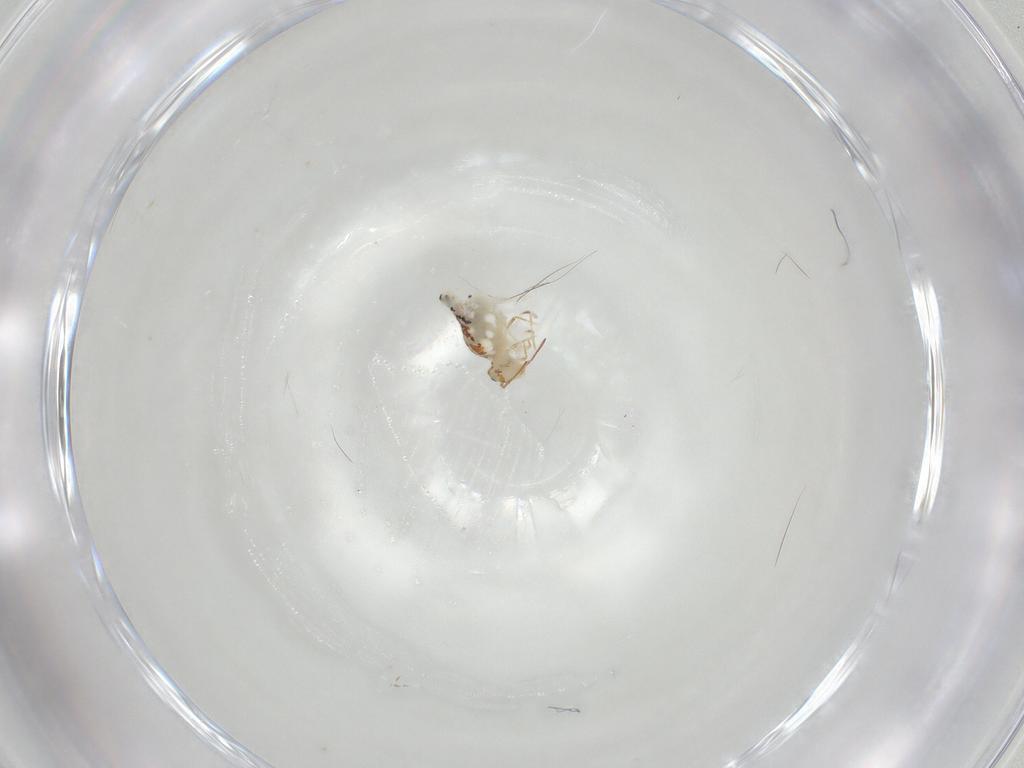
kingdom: Animalia
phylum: Arthropoda
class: Collembola
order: Symphypleona
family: Bourletiellidae
